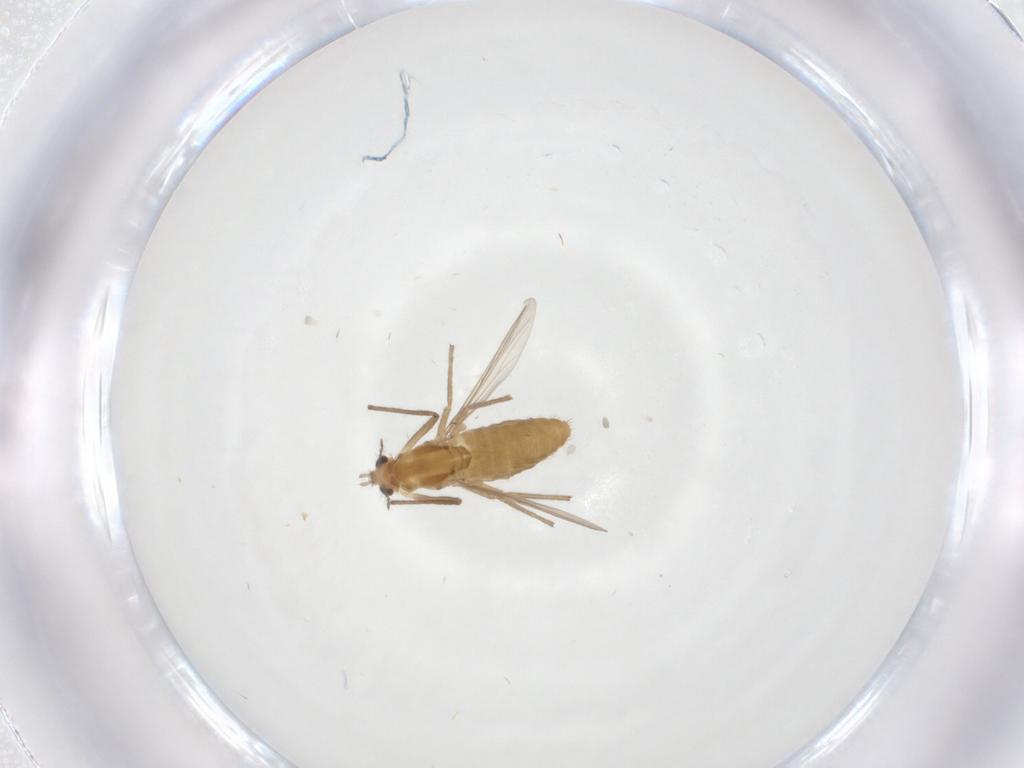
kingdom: Animalia
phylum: Arthropoda
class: Insecta
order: Diptera
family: Chironomidae
